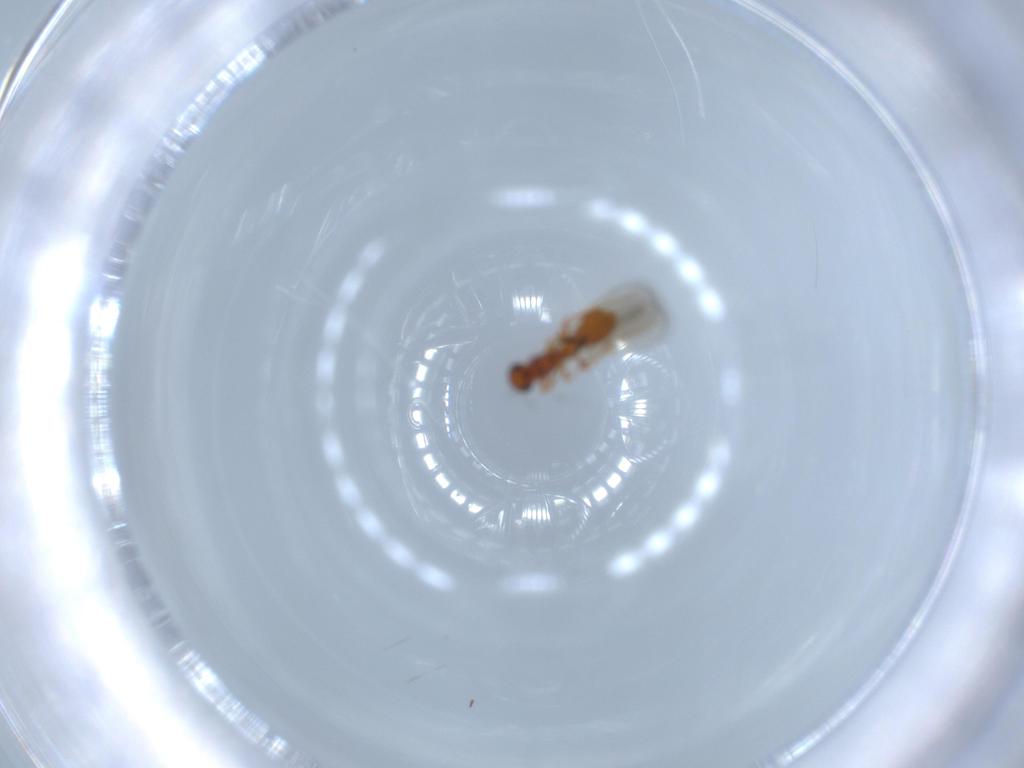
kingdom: Animalia
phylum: Arthropoda
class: Insecta
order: Hymenoptera
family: Platygastridae
